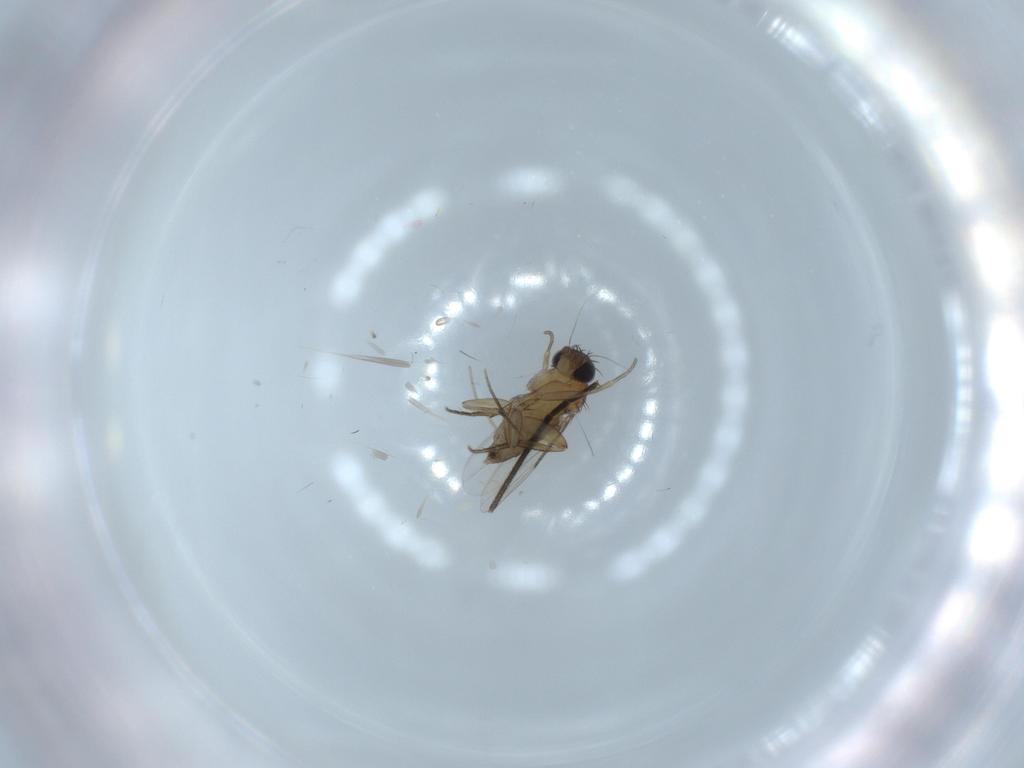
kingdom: Animalia
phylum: Arthropoda
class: Insecta
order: Diptera
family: Phoridae
